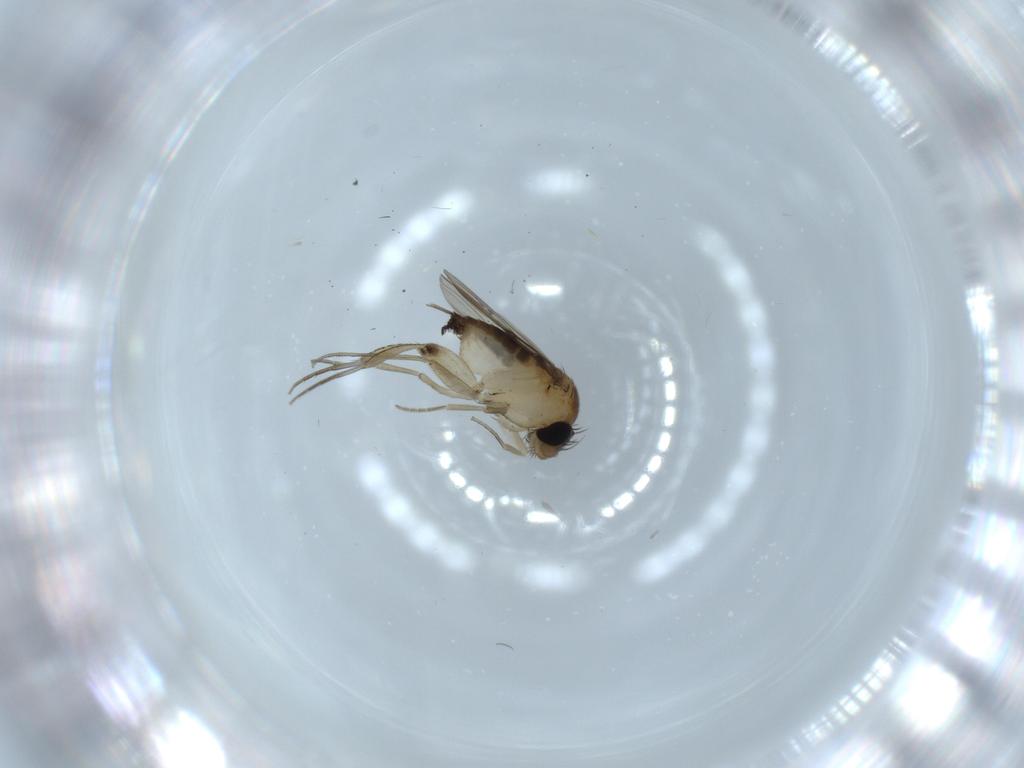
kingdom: Animalia
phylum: Arthropoda
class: Insecta
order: Diptera
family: Phoridae
